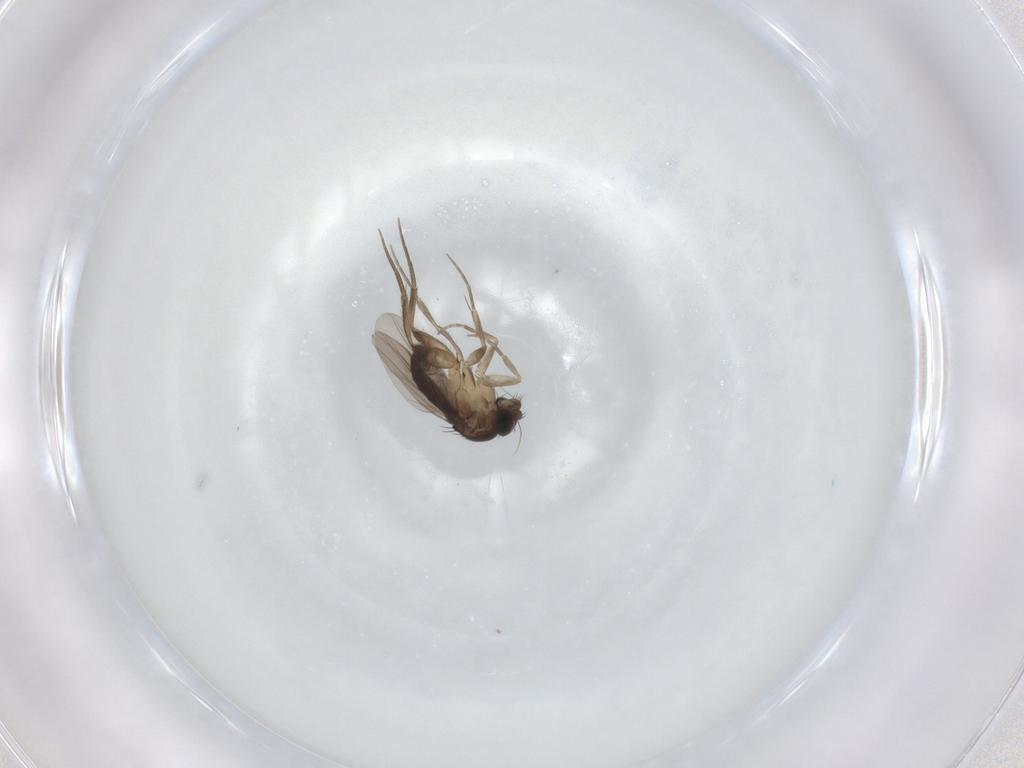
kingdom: Animalia
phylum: Arthropoda
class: Insecta
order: Diptera
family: Phoridae
